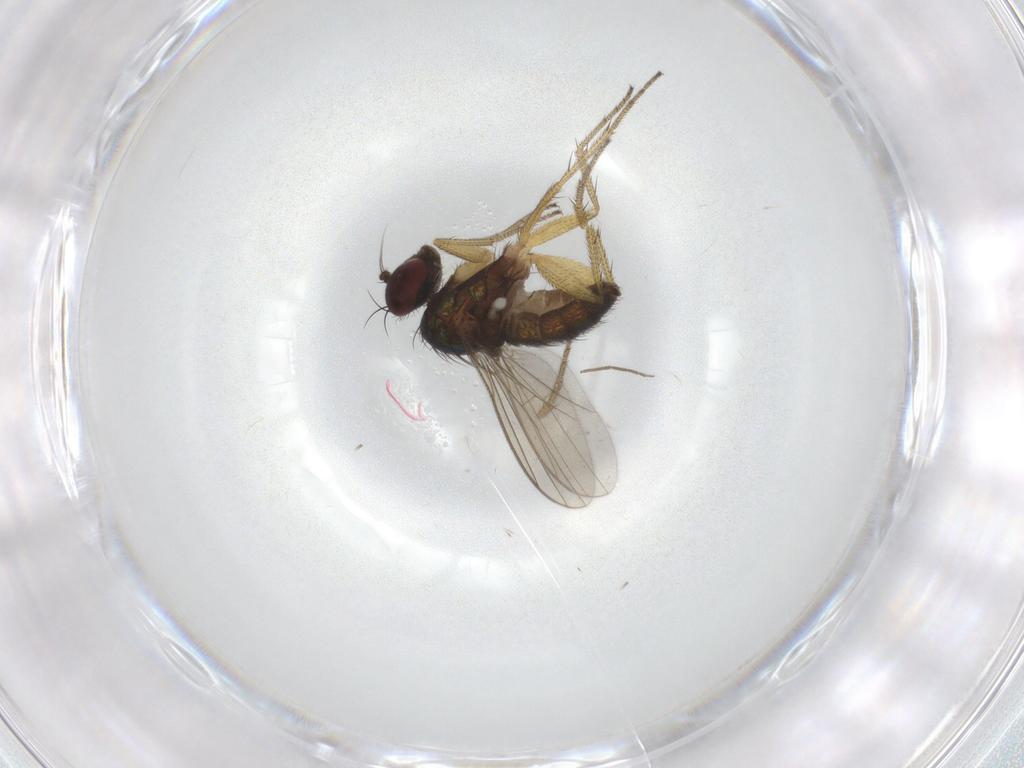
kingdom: Animalia
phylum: Arthropoda
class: Insecta
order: Diptera
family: Dolichopodidae
